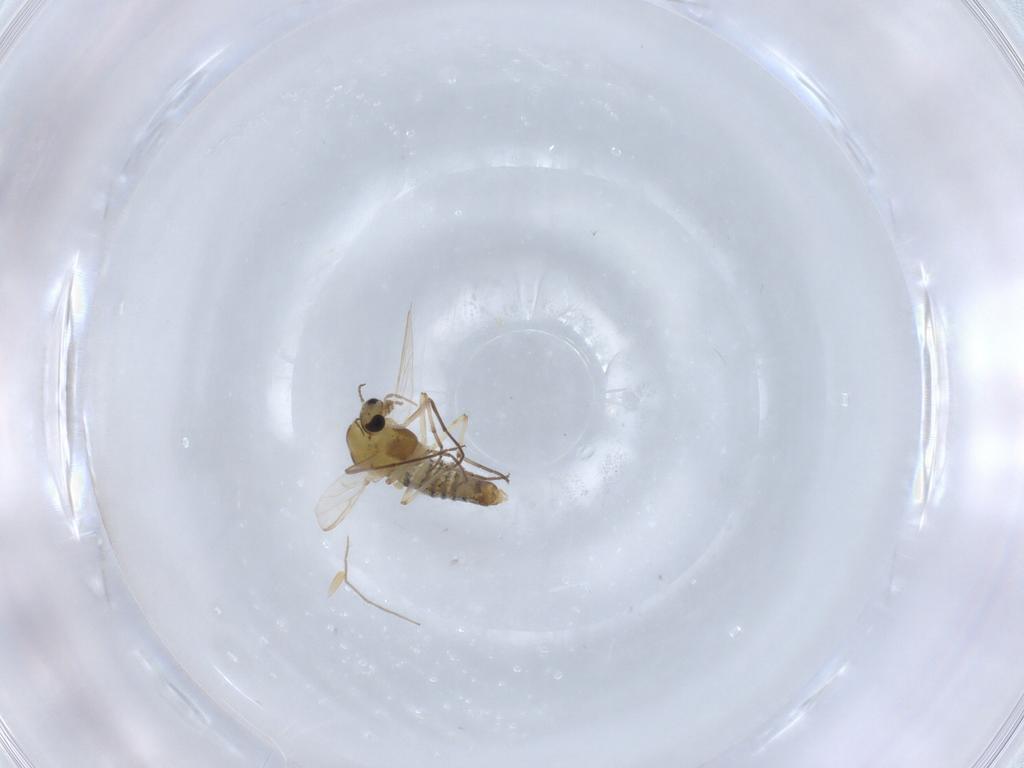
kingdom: Animalia
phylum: Arthropoda
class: Insecta
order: Diptera
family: Chironomidae
